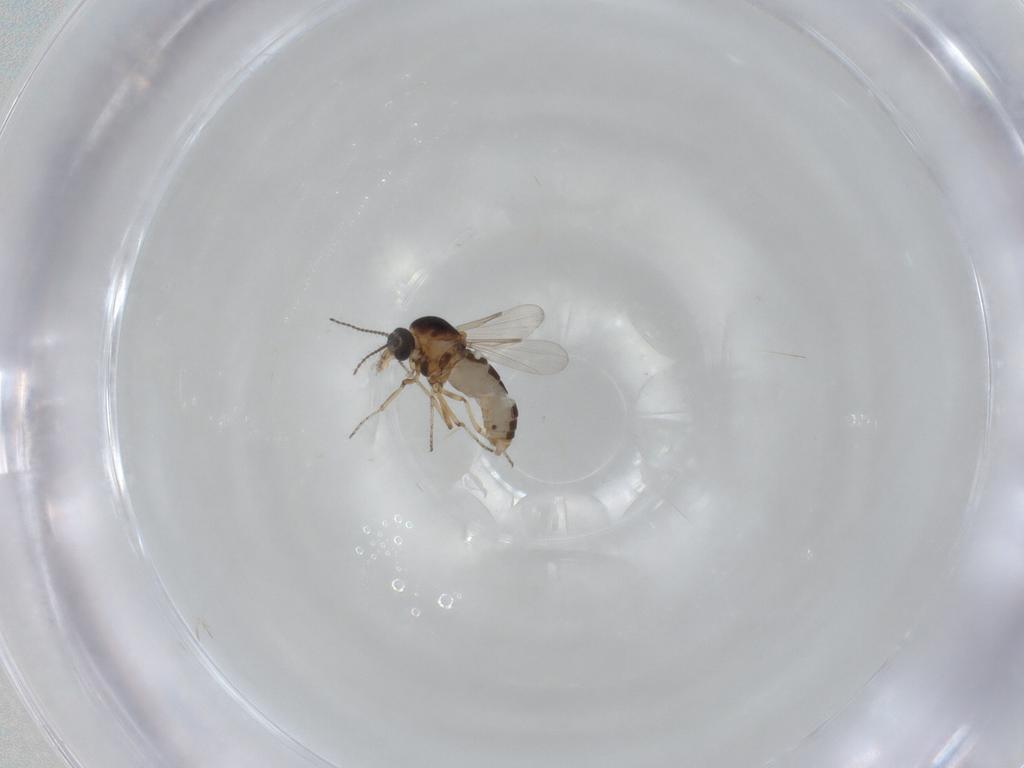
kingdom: Animalia
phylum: Arthropoda
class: Insecta
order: Diptera
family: Ceratopogonidae
